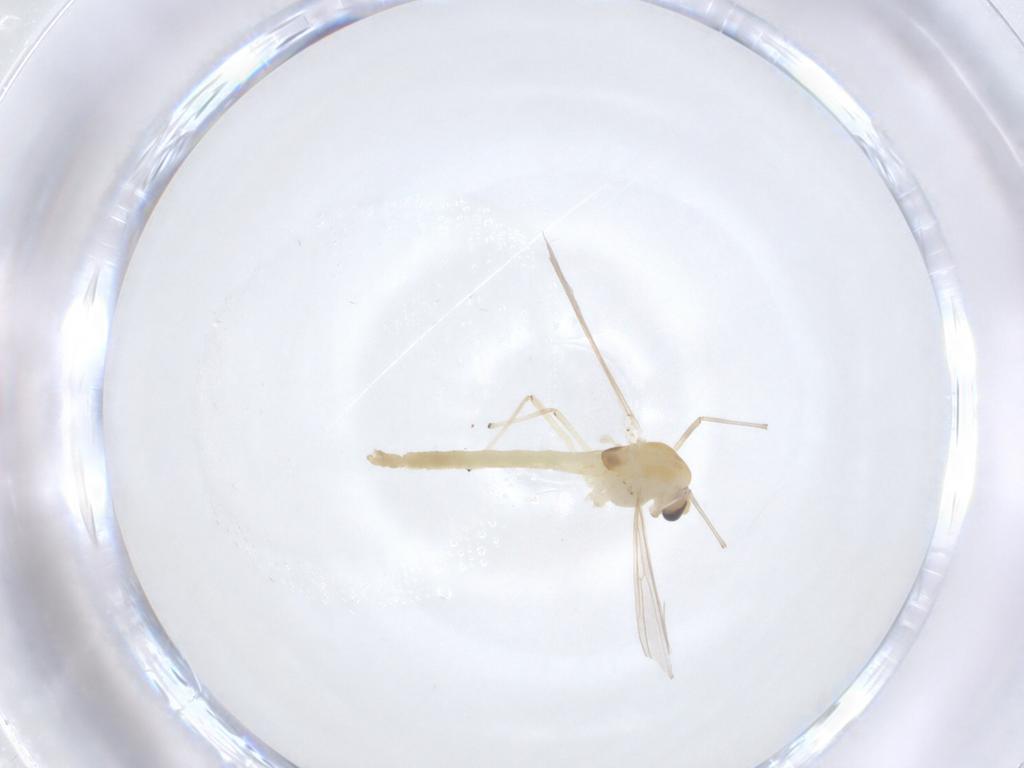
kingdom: Animalia
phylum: Arthropoda
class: Insecta
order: Diptera
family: Chironomidae
